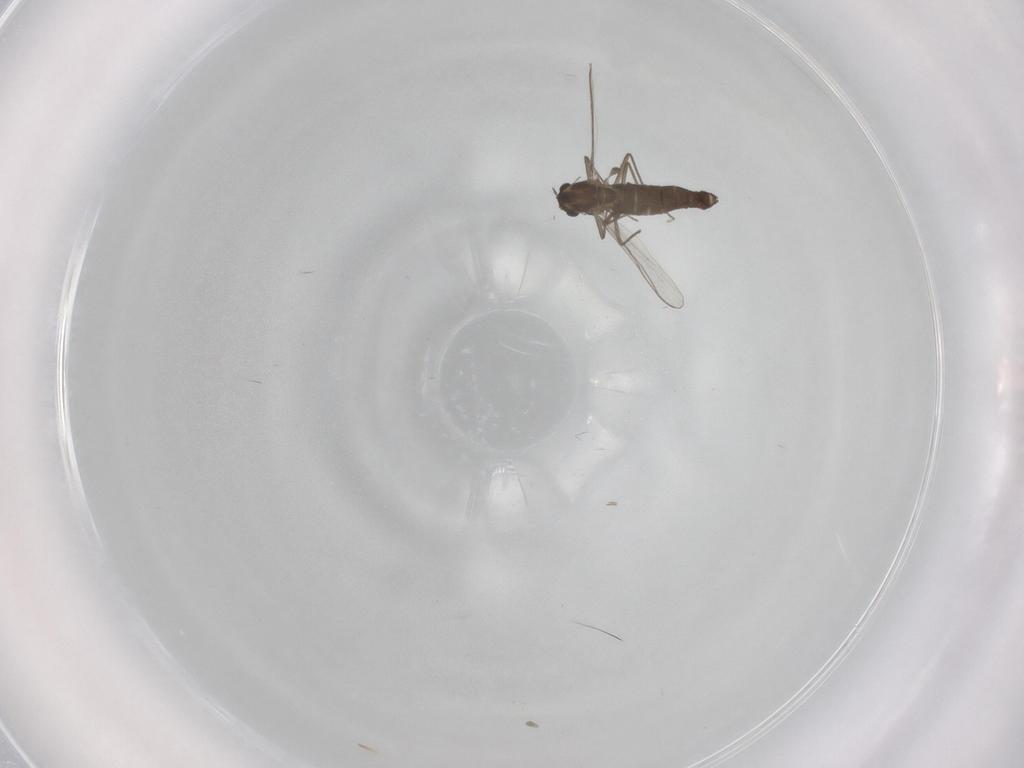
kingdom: Animalia
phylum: Arthropoda
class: Insecta
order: Diptera
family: Chironomidae
